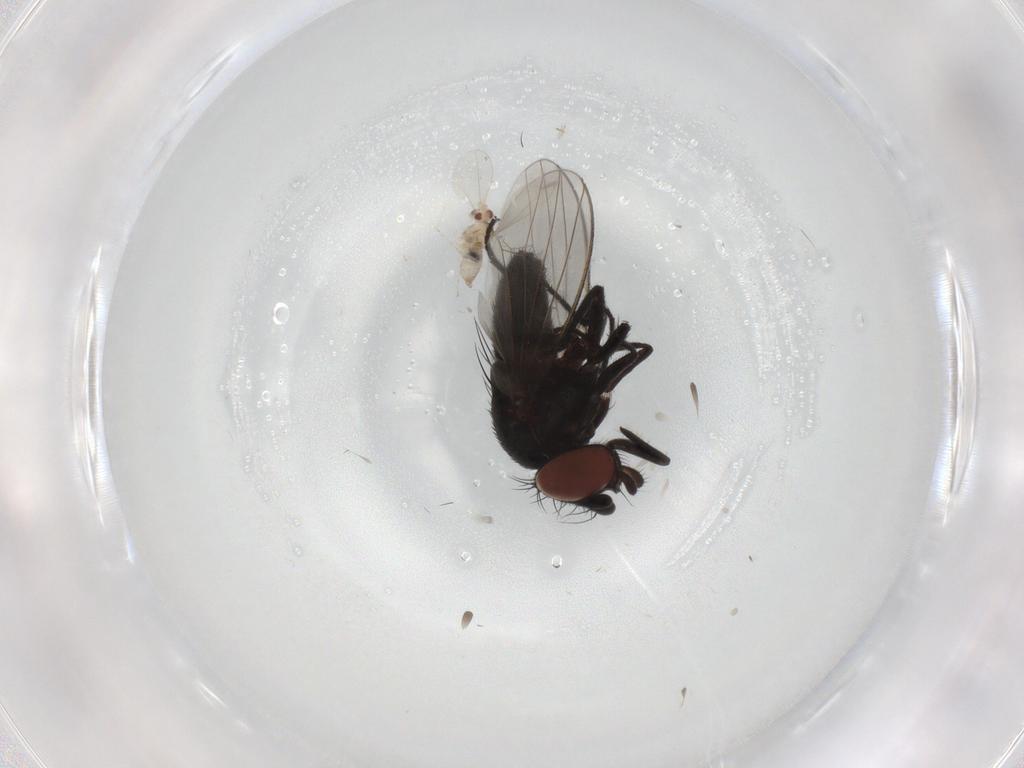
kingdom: Animalia
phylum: Arthropoda
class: Insecta
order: Diptera
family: Milichiidae
